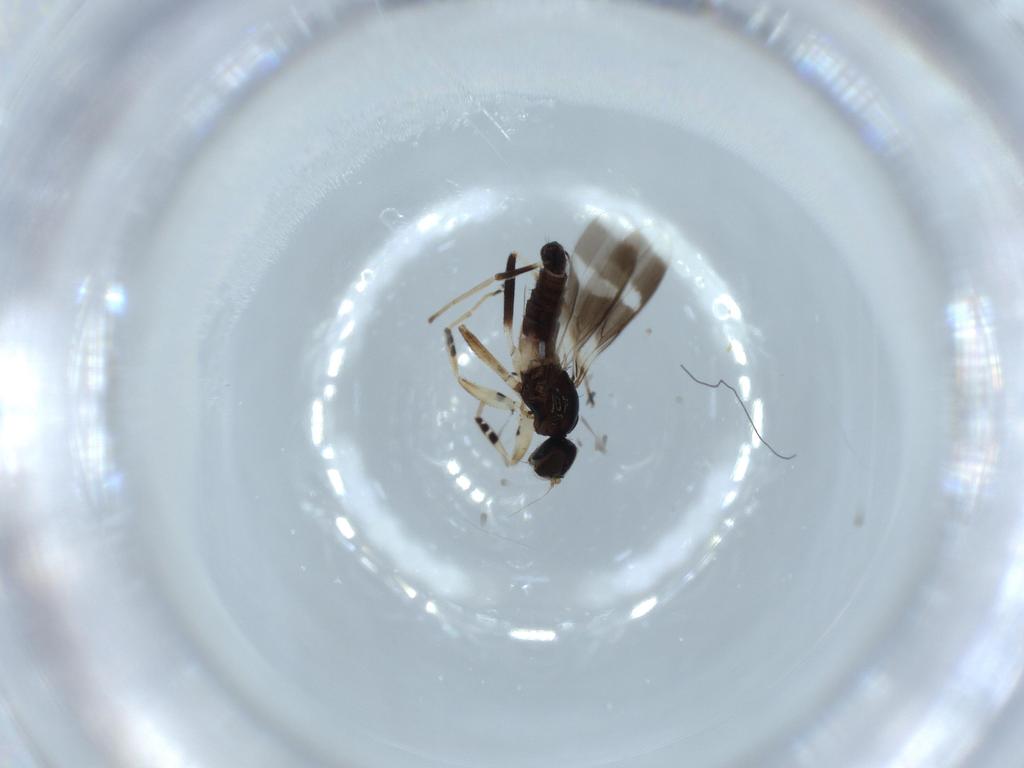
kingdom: Animalia
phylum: Arthropoda
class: Insecta
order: Diptera
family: Hybotidae
